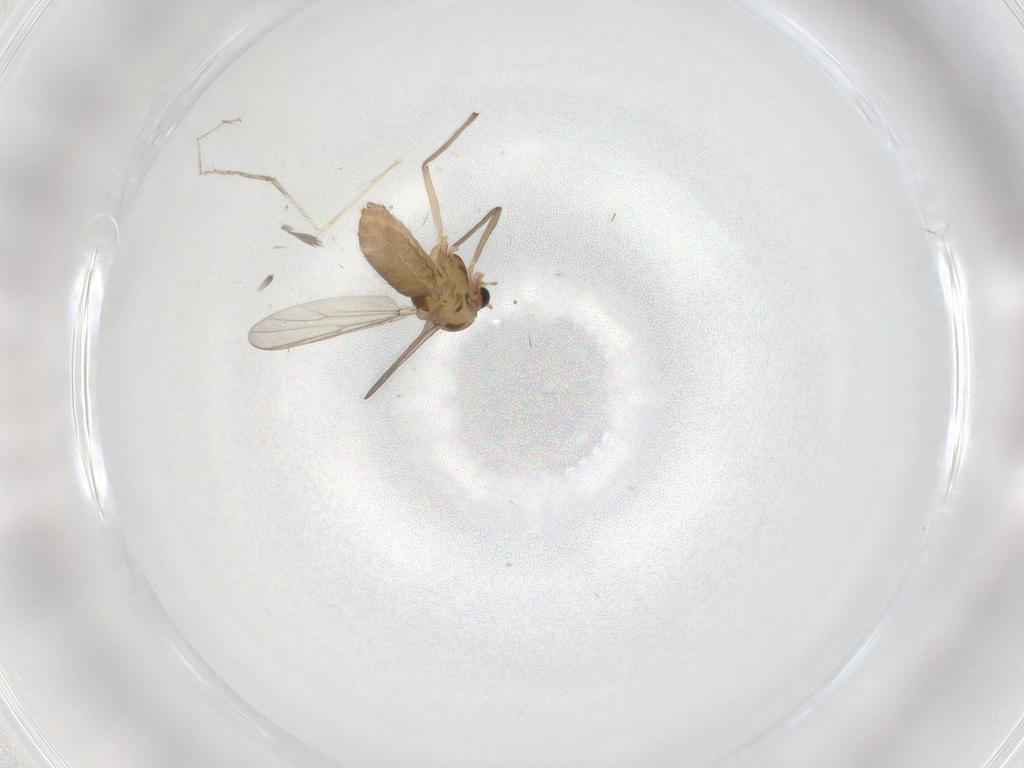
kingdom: Animalia
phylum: Arthropoda
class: Insecta
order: Diptera
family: Chironomidae
